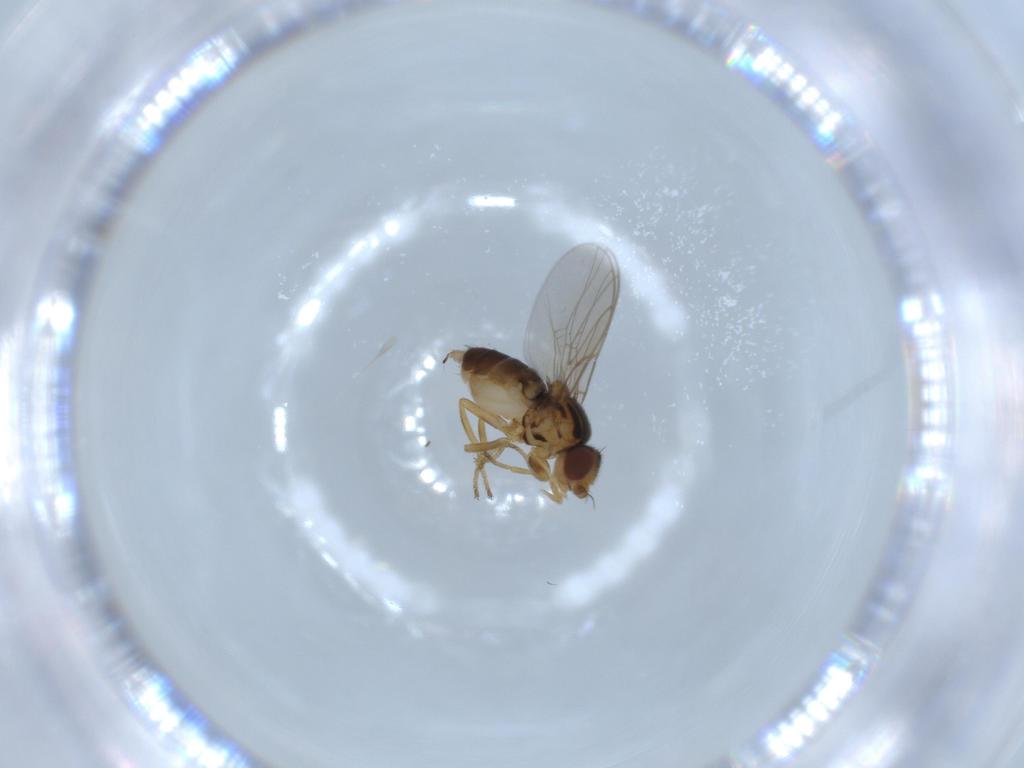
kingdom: Animalia
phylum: Arthropoda
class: Insecta
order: Diptera
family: Chloropidae
